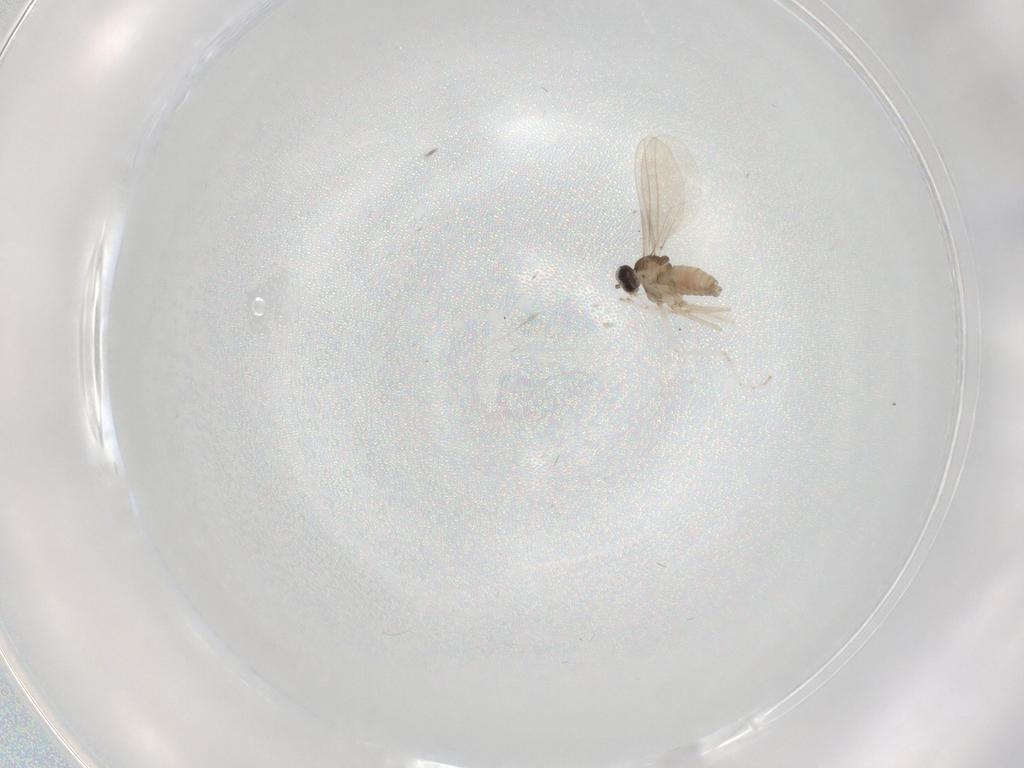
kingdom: Animalia
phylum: Arthropoda
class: Insecta
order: Diptera
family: Cecidomyiidae
